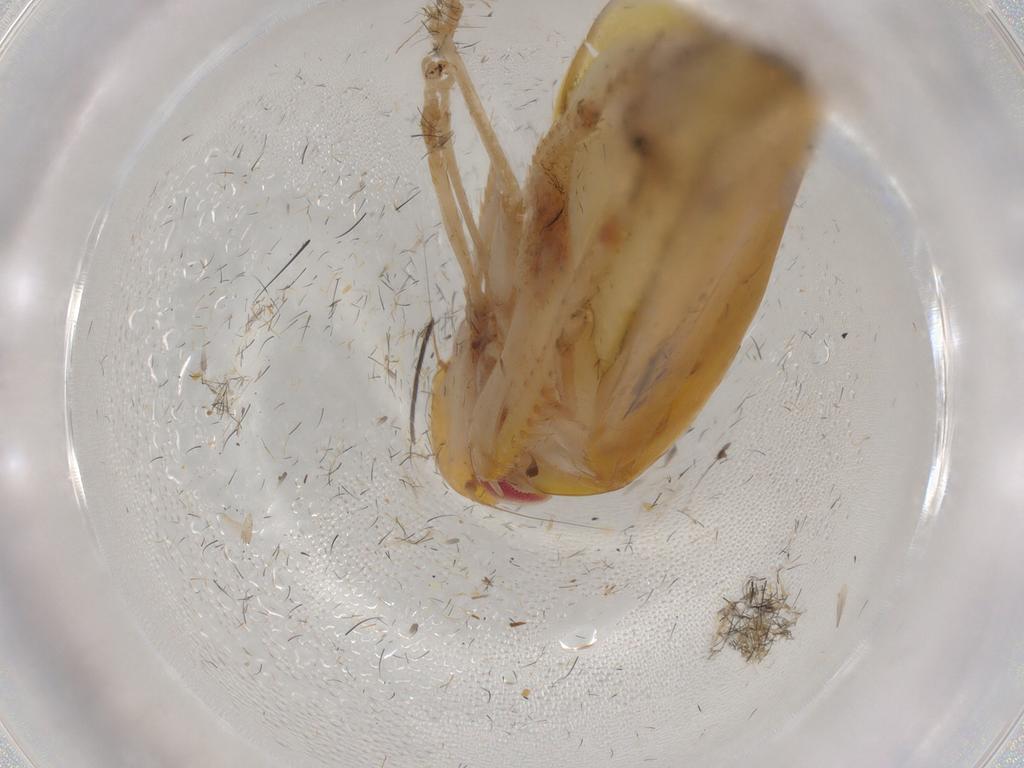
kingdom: Animalia
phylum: Arthropoda
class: Insecta
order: Hemiptera
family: Cicadellidae
